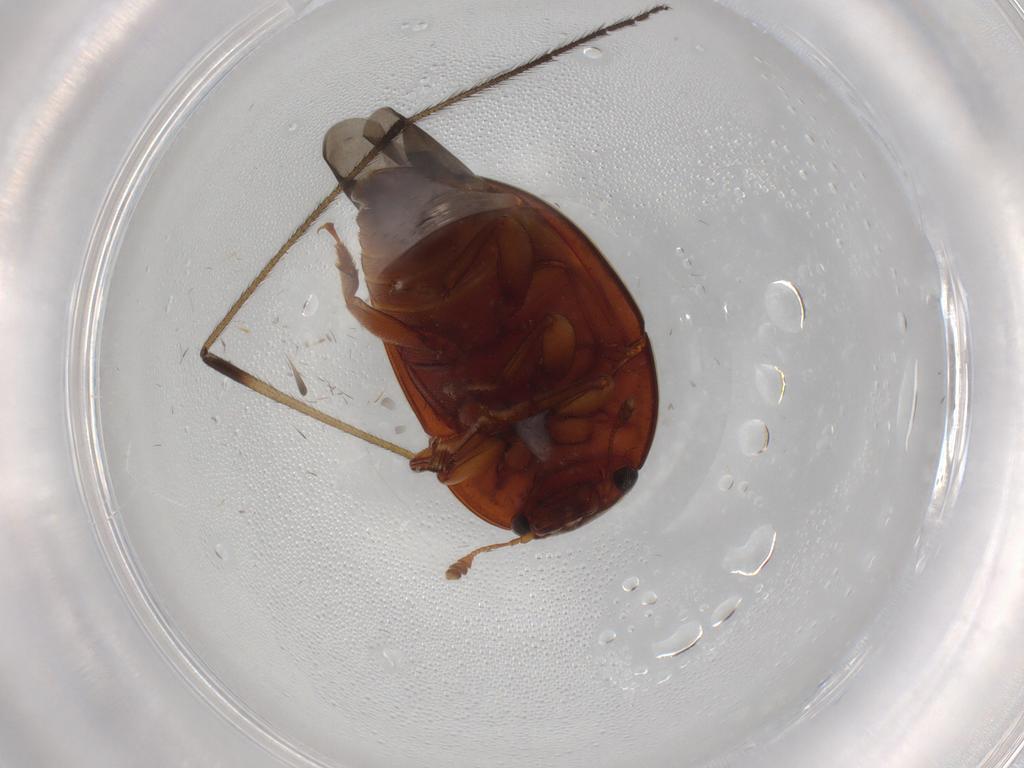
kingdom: Animalia
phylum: Arthropoda
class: Insecta
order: Coleoptera
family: Nitidulidae
